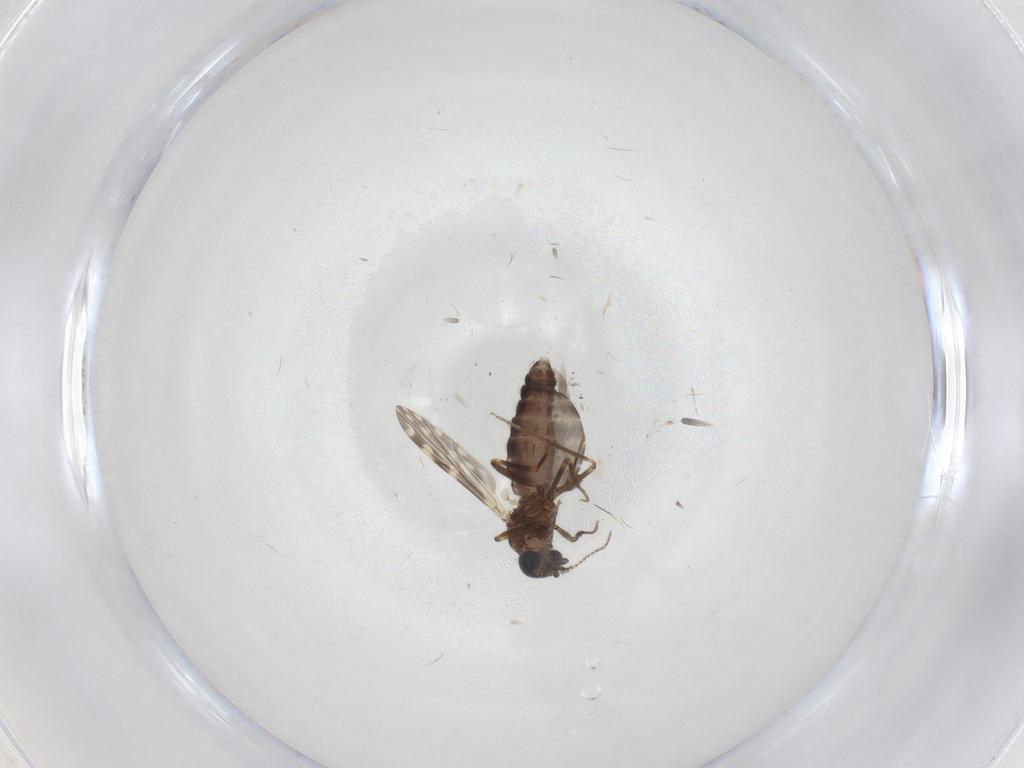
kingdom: Animalia
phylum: Arthropoda
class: Insecta
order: Diptera
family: Ceratopogonidae
